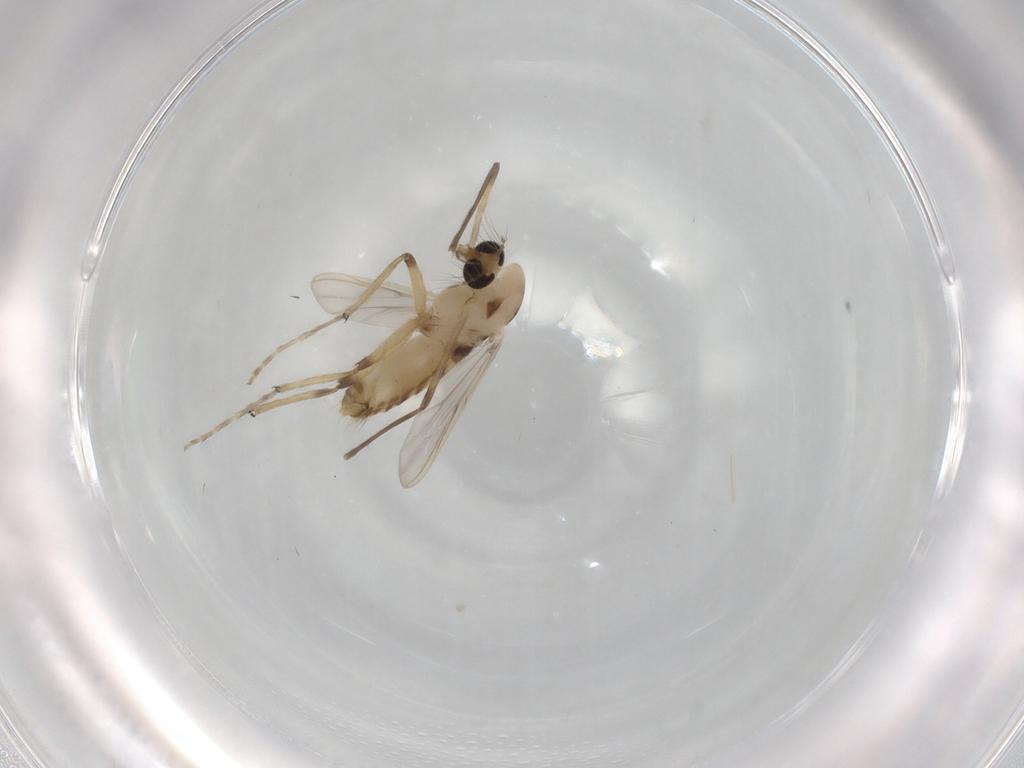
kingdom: Animalia
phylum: Arthropoda
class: Insecta
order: Diptera
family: Chironomidae
